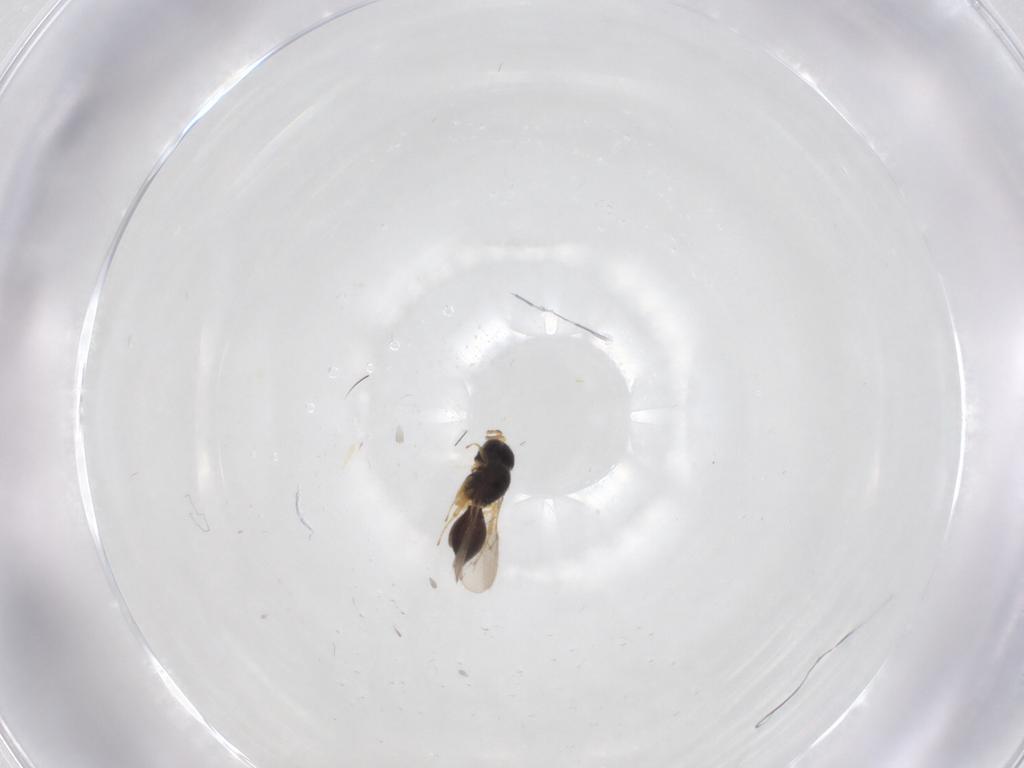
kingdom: Animalia
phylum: Arthropoda
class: Insecta
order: Hymenoptera
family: Scelionidae
